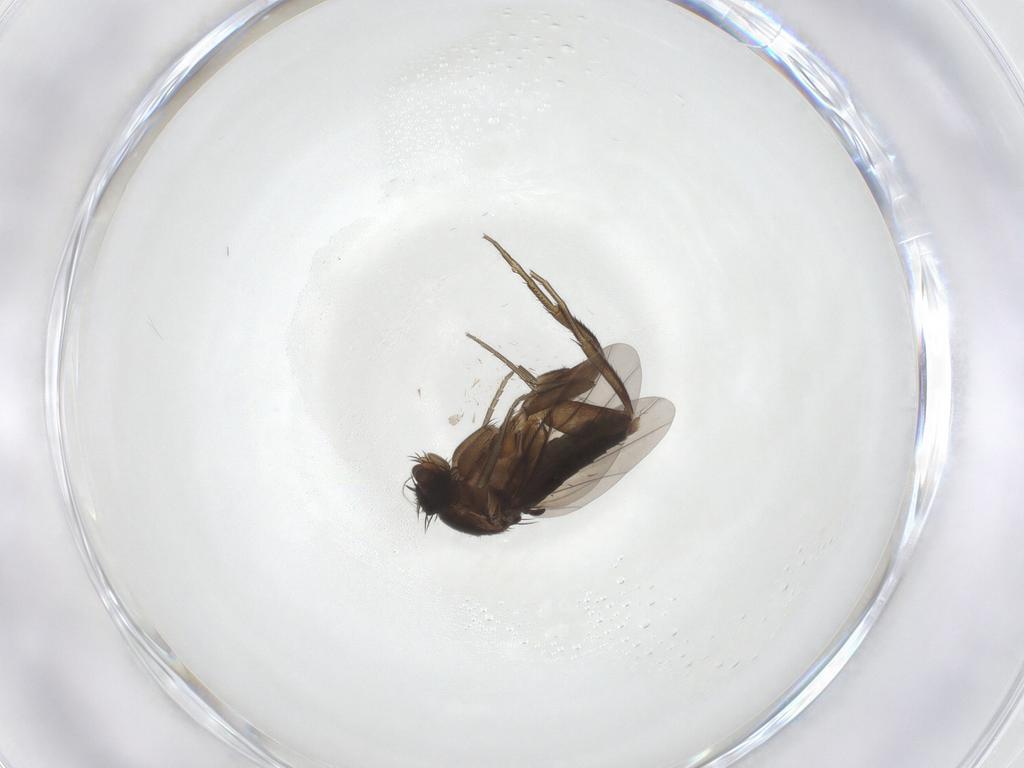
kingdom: Animalia
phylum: Arthropoda
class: Insecta
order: Diptera
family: Phoridae
